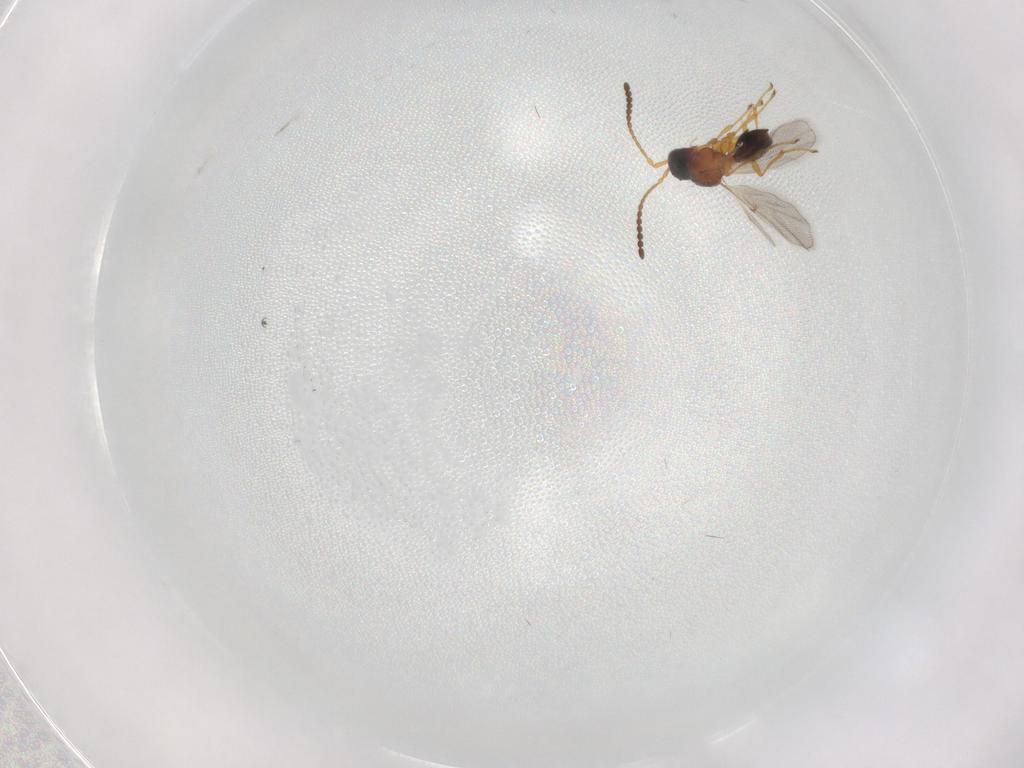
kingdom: Animalia
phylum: Arthropoda
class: Insecta
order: Hymenoptera
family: Diapriidae
